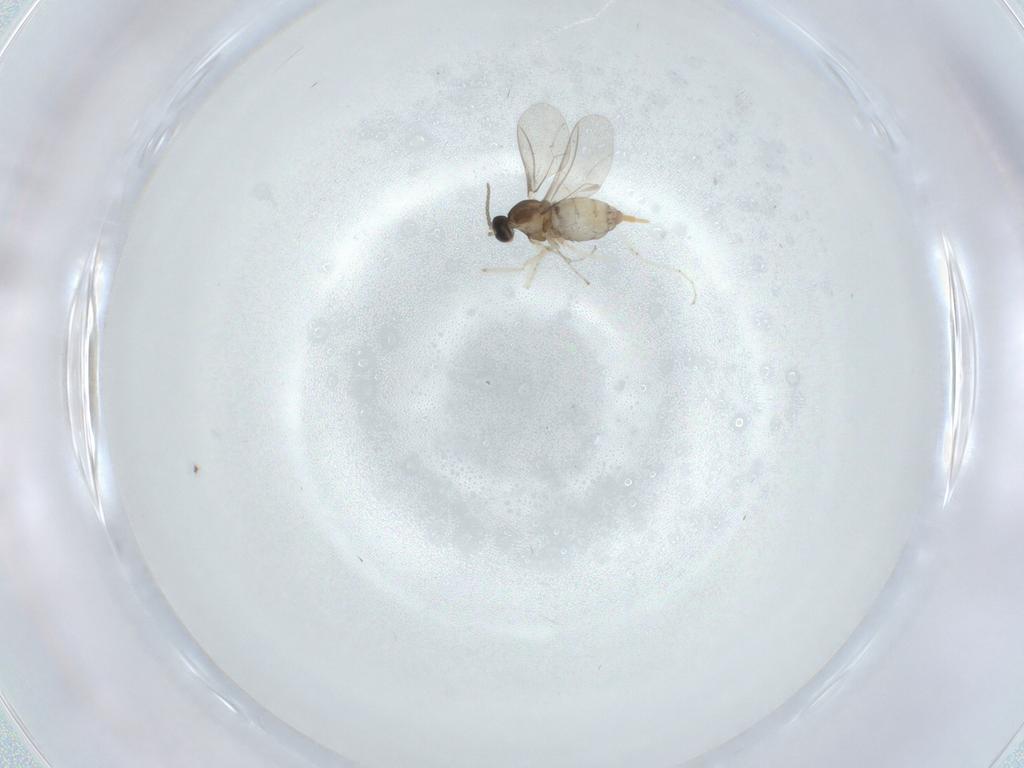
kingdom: Animalia
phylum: Arthropoda
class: Insecta
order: Diptera
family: Cecidomyiidae
